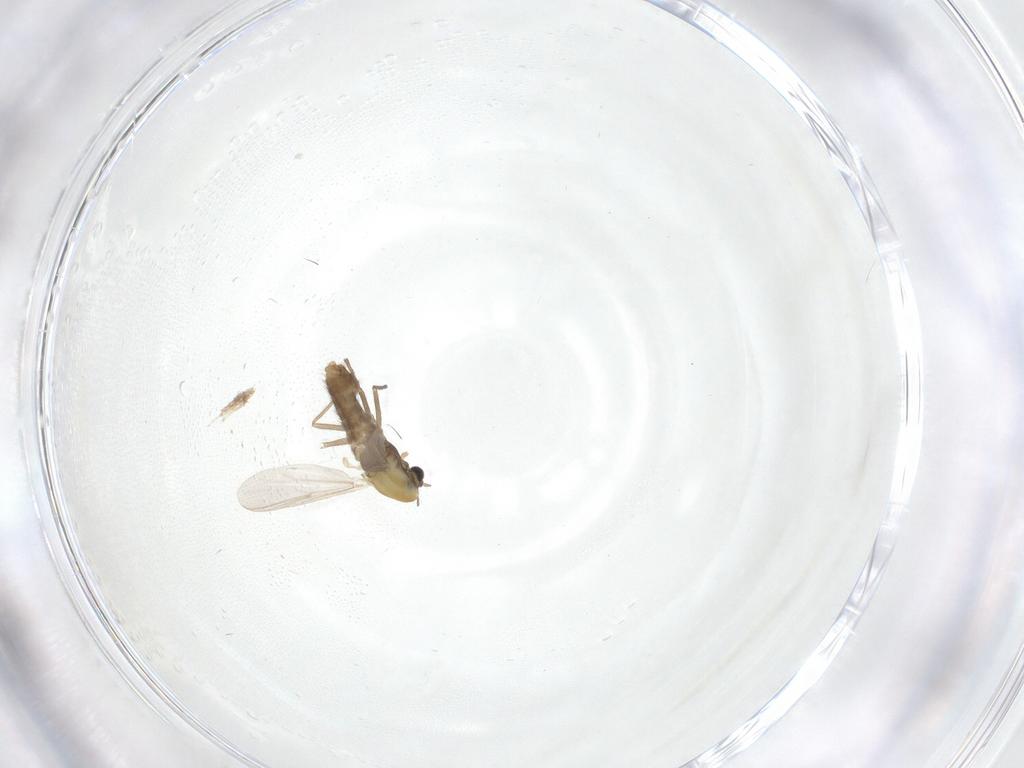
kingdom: Animalia
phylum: Arthropoda
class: Insecta
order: Diptera
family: Chironomidae
